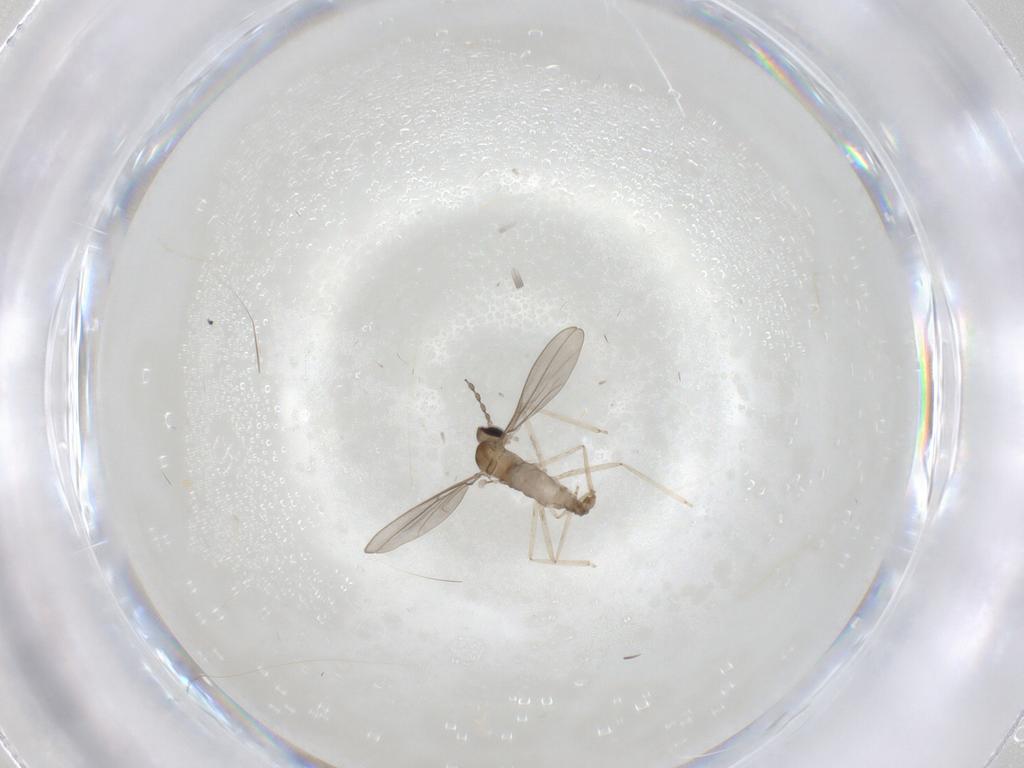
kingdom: Animalia
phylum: Arthropoda
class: Insecta
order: Diptera
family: Cecidomyiidae
